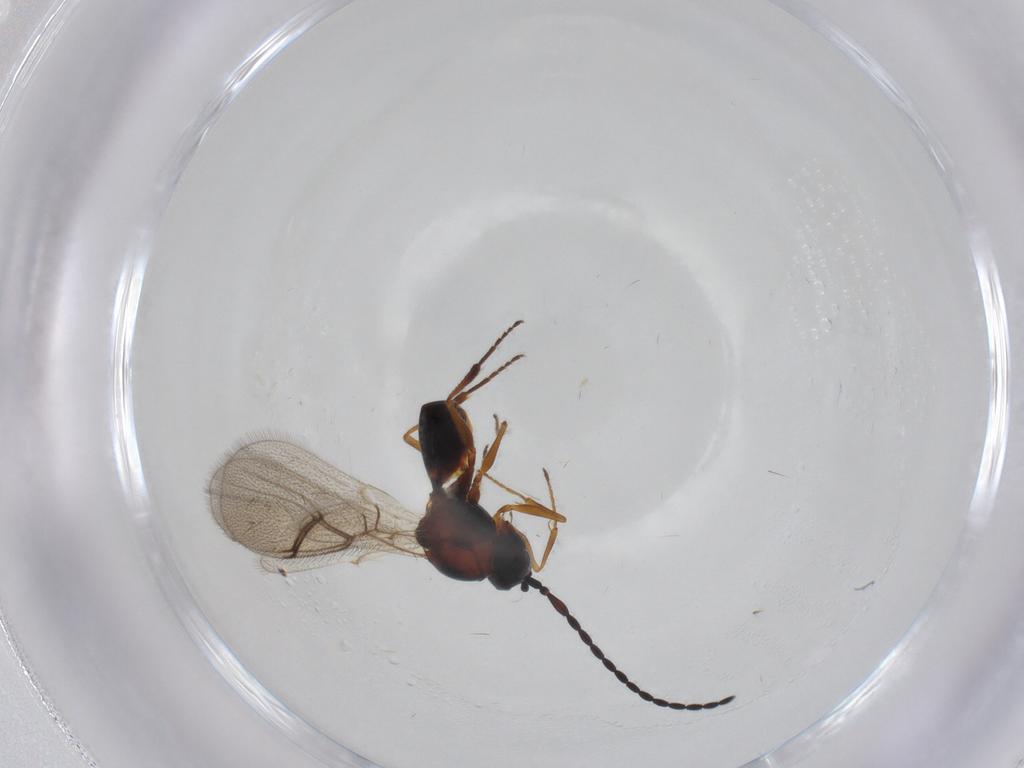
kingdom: Animalia
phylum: Arthropoda
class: Insecta
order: Hymenoptera
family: Figitidae
